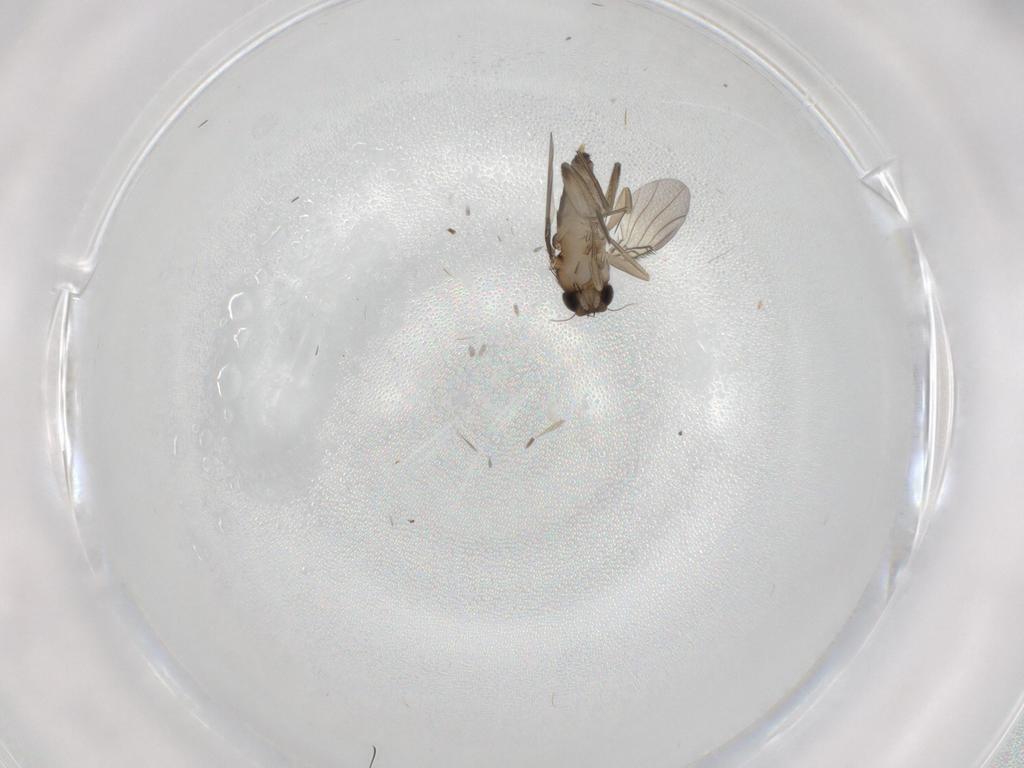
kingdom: Animalia
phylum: Arthropoda
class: Insecta
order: Diptera
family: Phoridae
